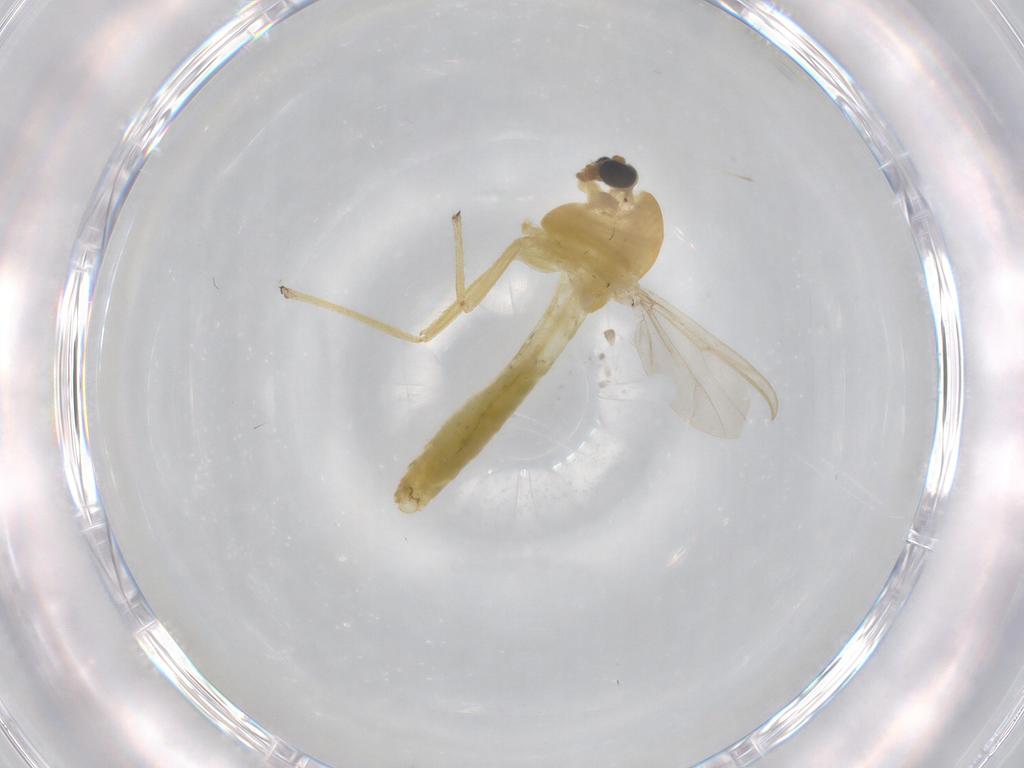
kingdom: Animalia
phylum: Arthropoda
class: Insecta
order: Diptera
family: Chironomidae
